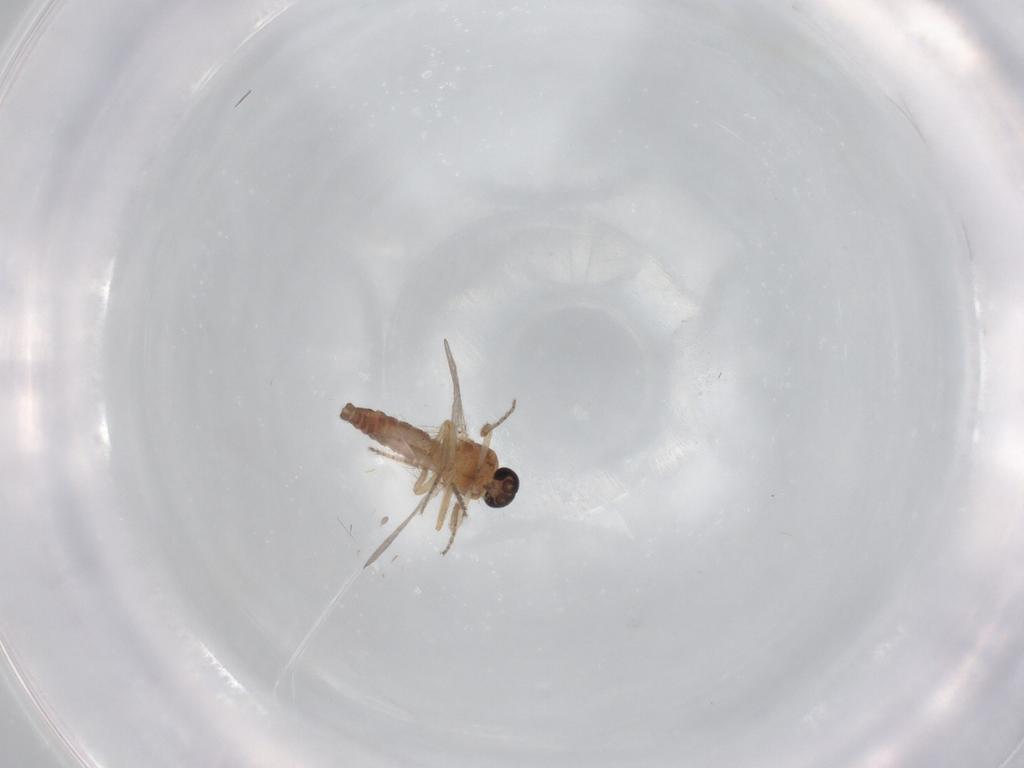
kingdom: Animalia
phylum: Arthropoda
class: Insecta
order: Diptera
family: Ceratopogonidae
